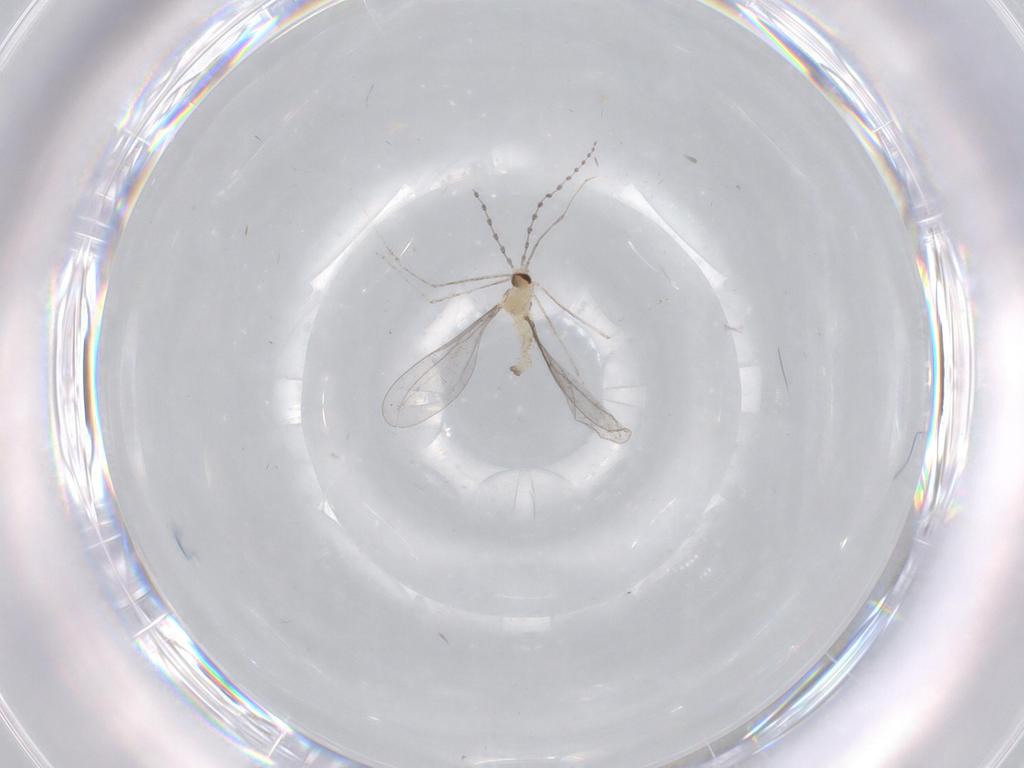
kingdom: Animalia
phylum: Arthropoda
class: Insecta
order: Diptera
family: Cecidomyiidae
